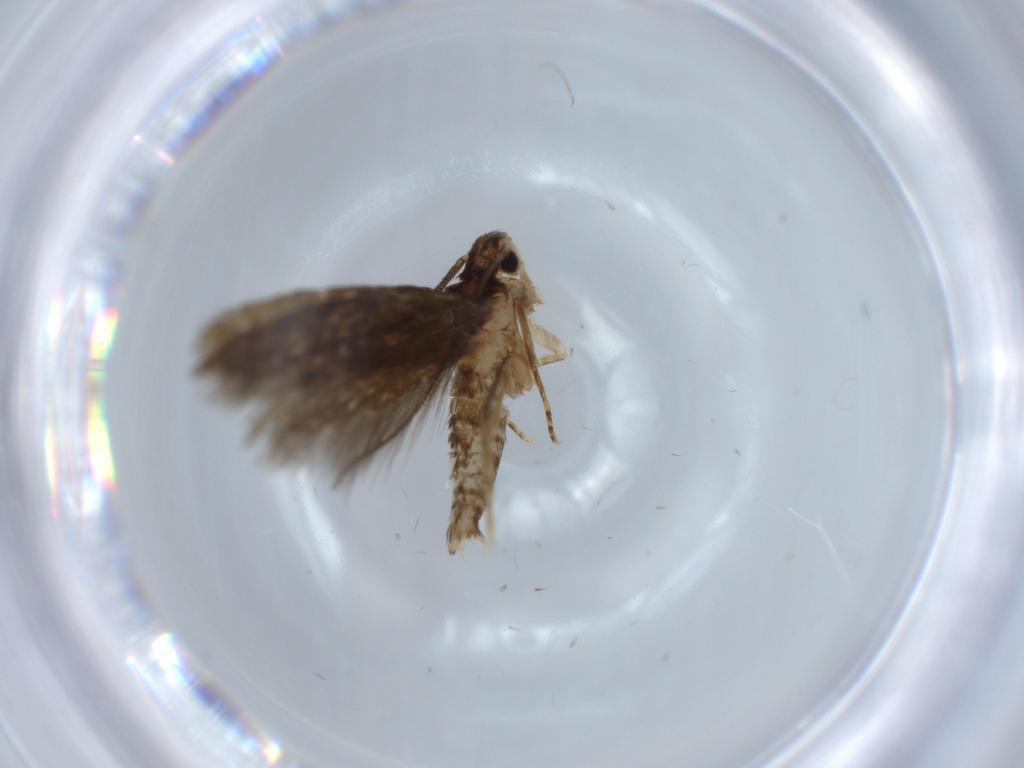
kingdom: Animalia
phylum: Arthropoda
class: Insecta
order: Lepidoptera
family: Tineidae
